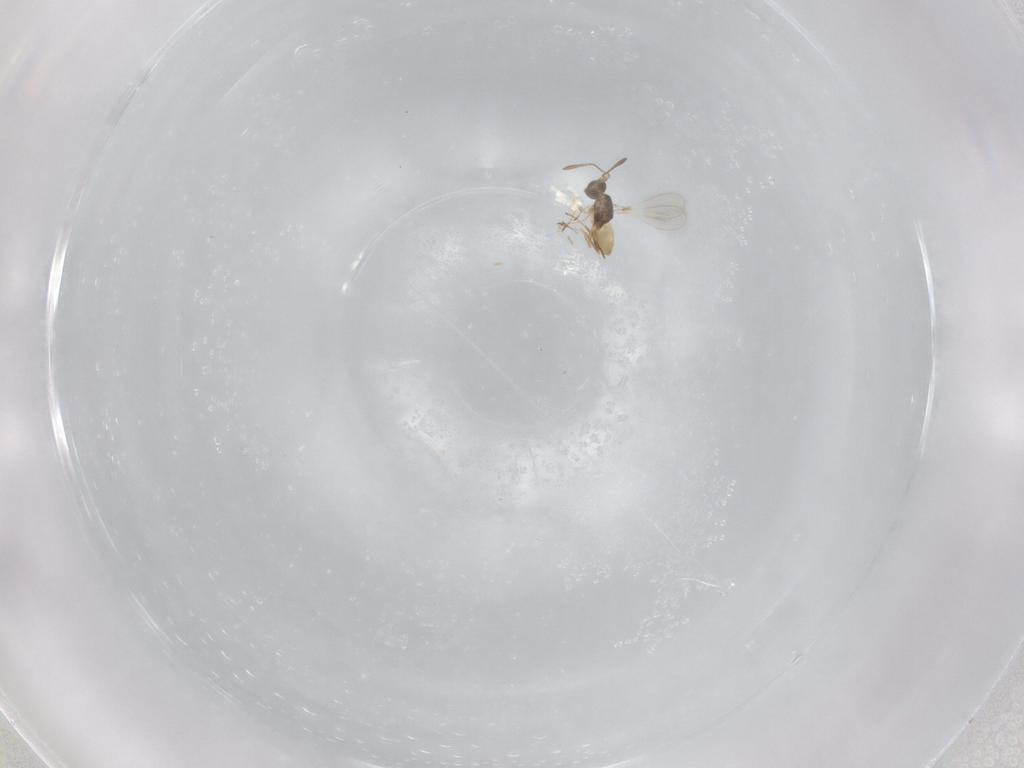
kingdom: Animalia
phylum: Arthropoda
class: Insecta
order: Hymenoptera
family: Mymaridae
